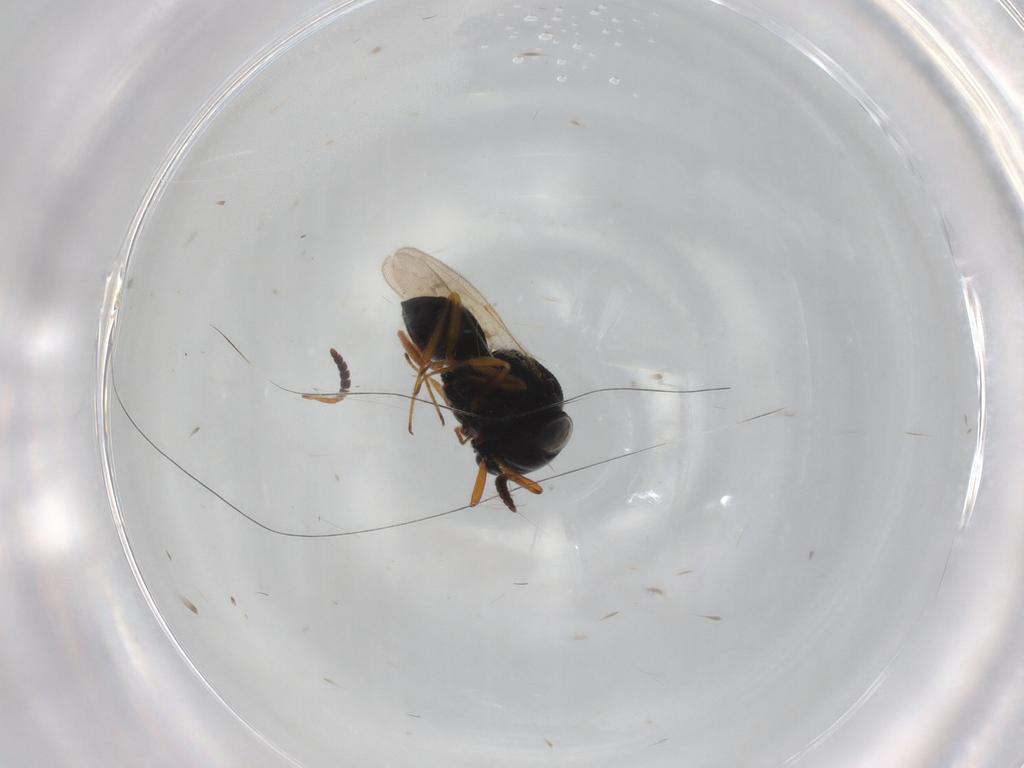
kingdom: Animalia
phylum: Arthropoda
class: Insecta
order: Hymenoptera
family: Scelionidae
